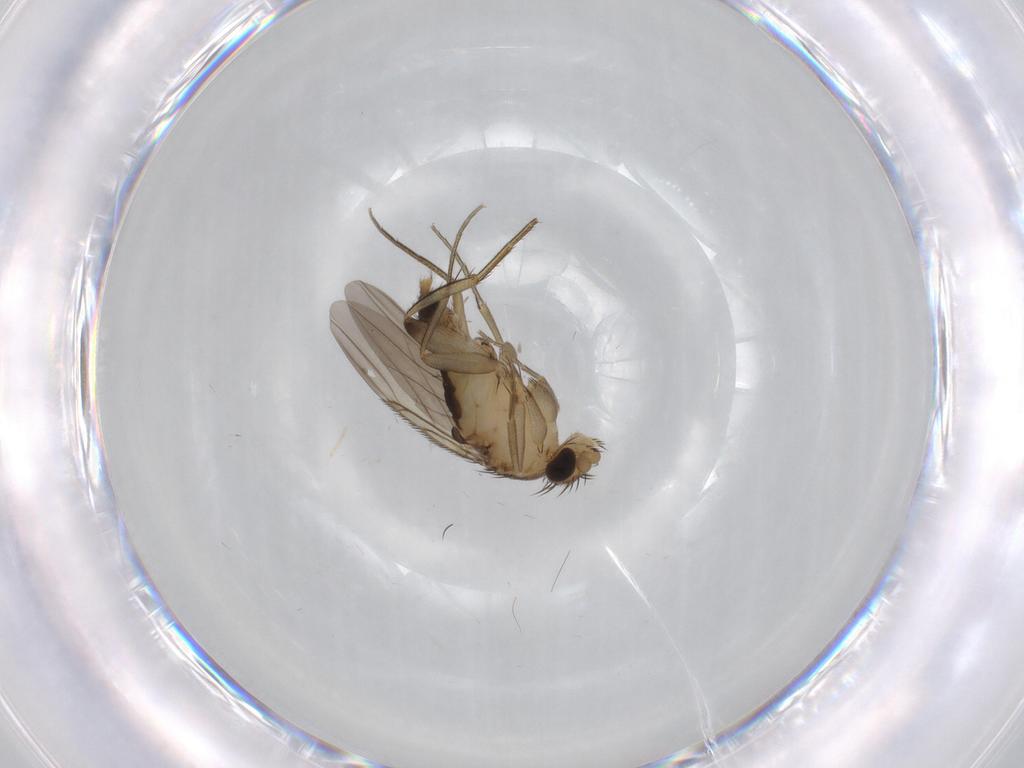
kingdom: Animalia
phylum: Arthropoda
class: Insecta
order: Diptera
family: Phoridae
